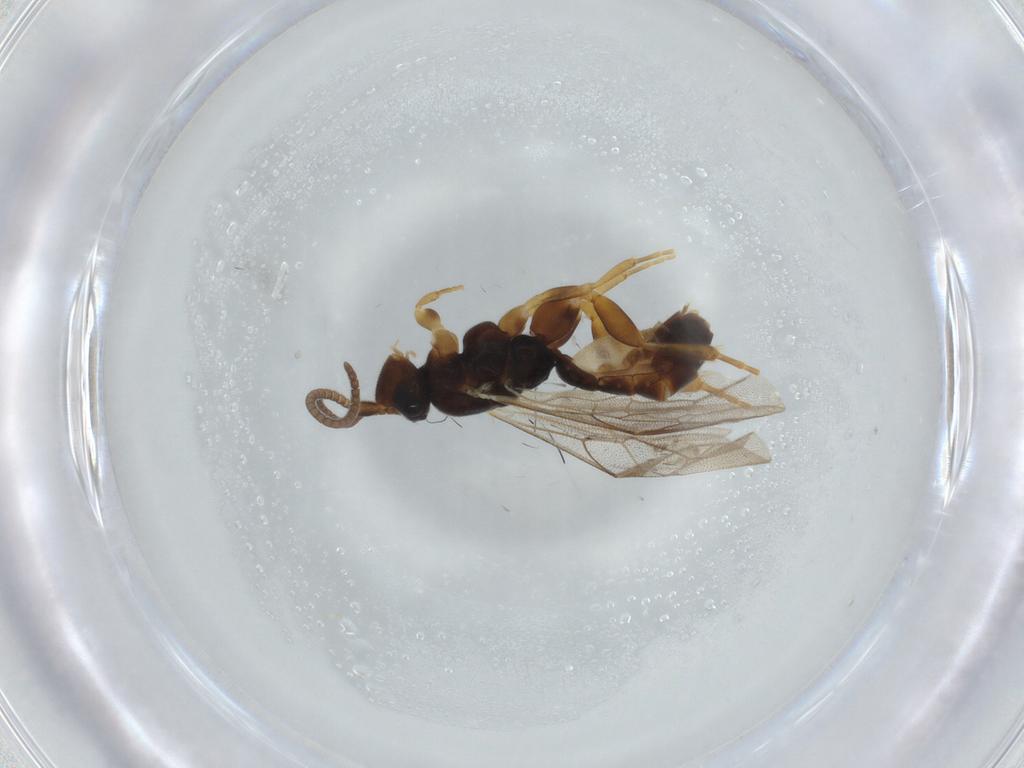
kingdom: Animalia
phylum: Arthropoda
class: Insecta
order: Hymenoptera
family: Ichneumonidae
